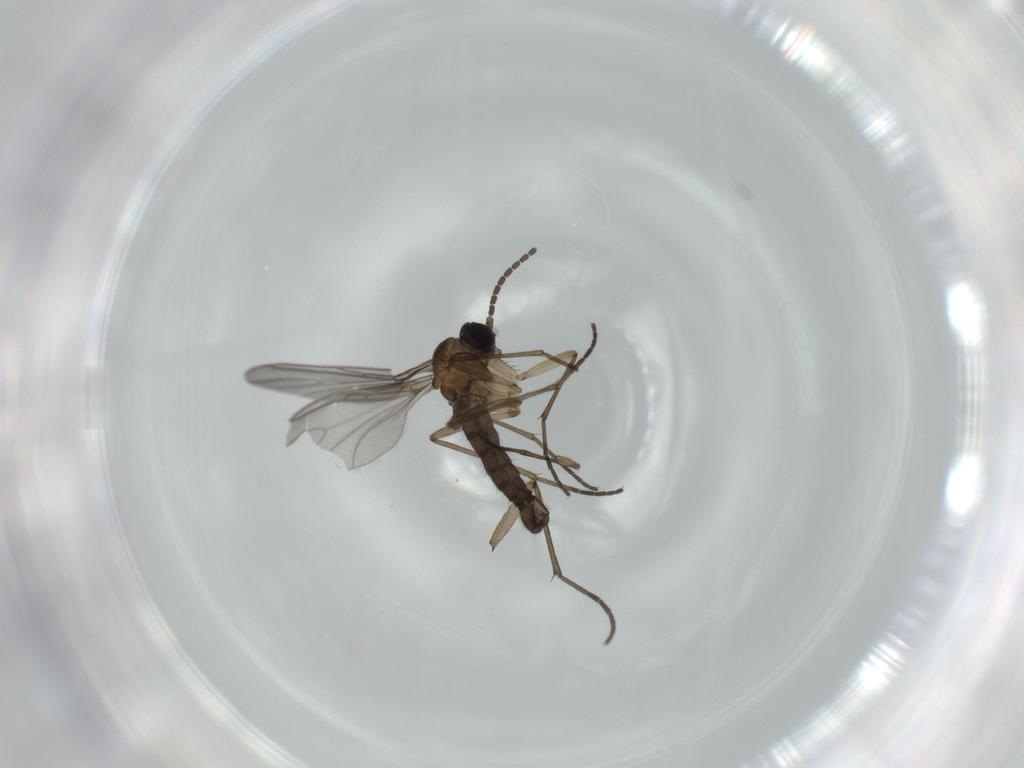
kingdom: Animalia
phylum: Arthropoda
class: Insecta
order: Diptera
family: Sciaridae
